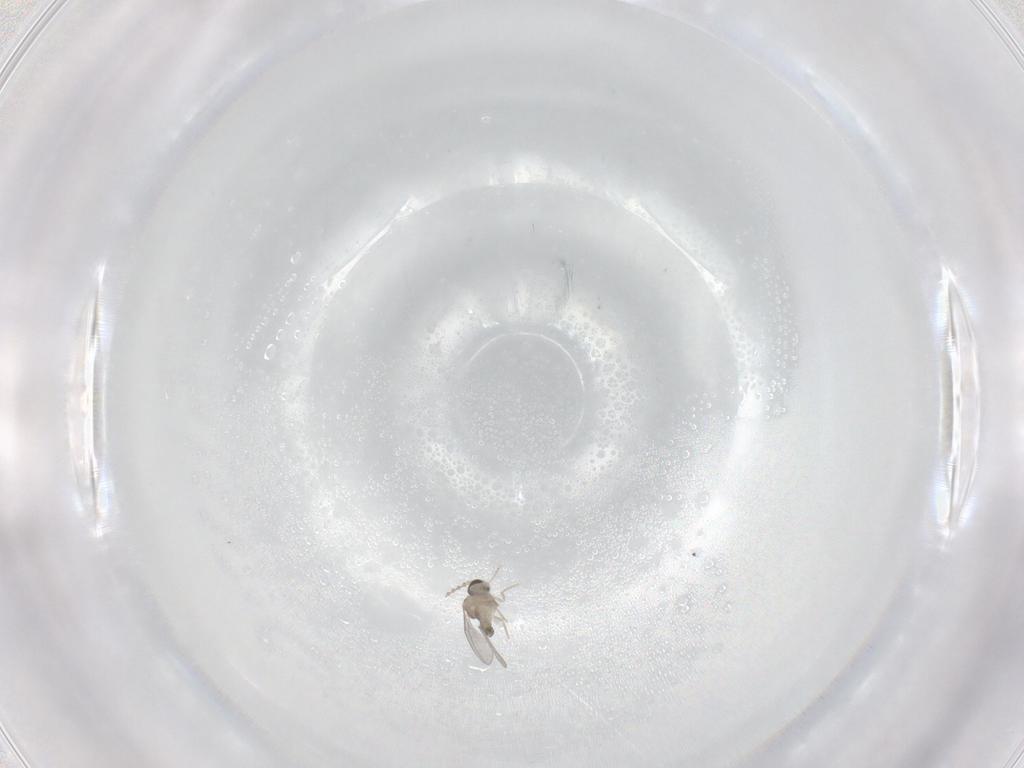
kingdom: Animalia
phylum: Arthropoda
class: Insecta
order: Diptera
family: Cecidomyiidae
